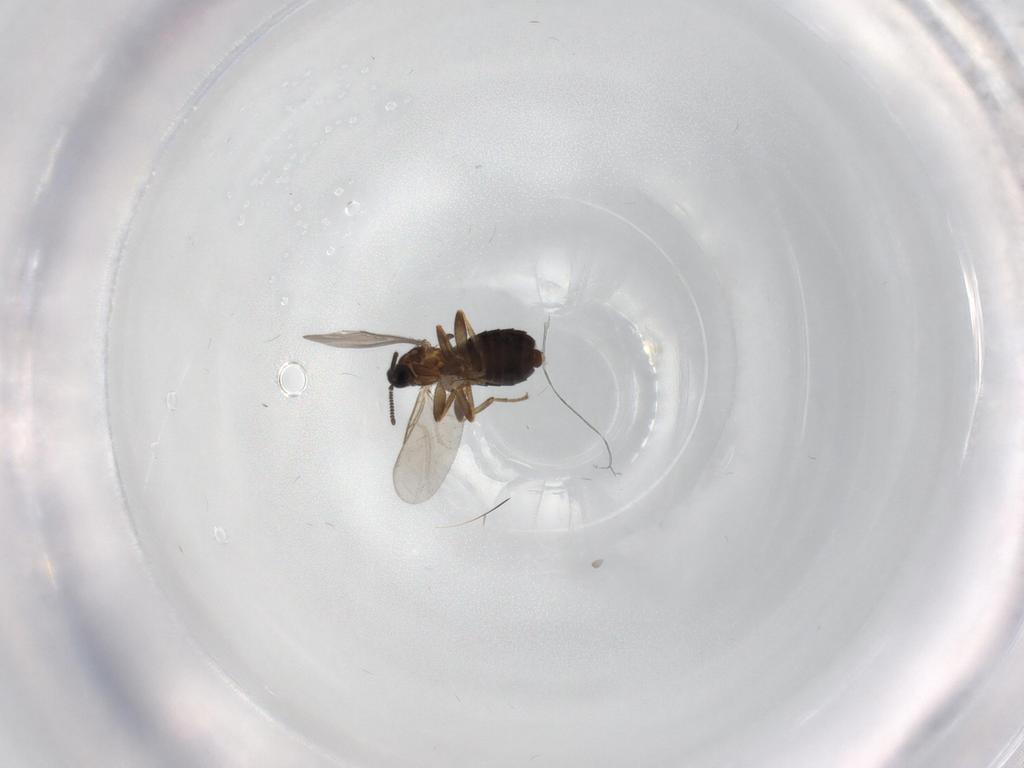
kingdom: Animalia
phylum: Arthropoda
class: Insecta
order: Diptera
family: Scatopsidae
